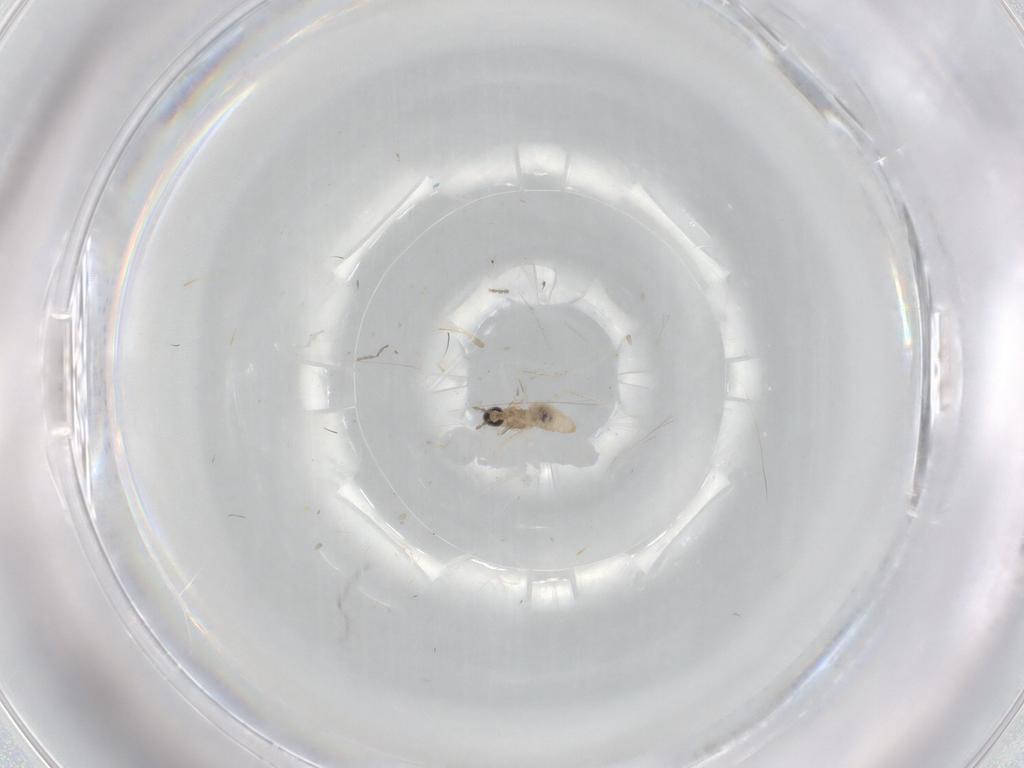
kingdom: Animalia
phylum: Arthropoda
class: Insecta
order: Diptera
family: Cecidomyiidae
